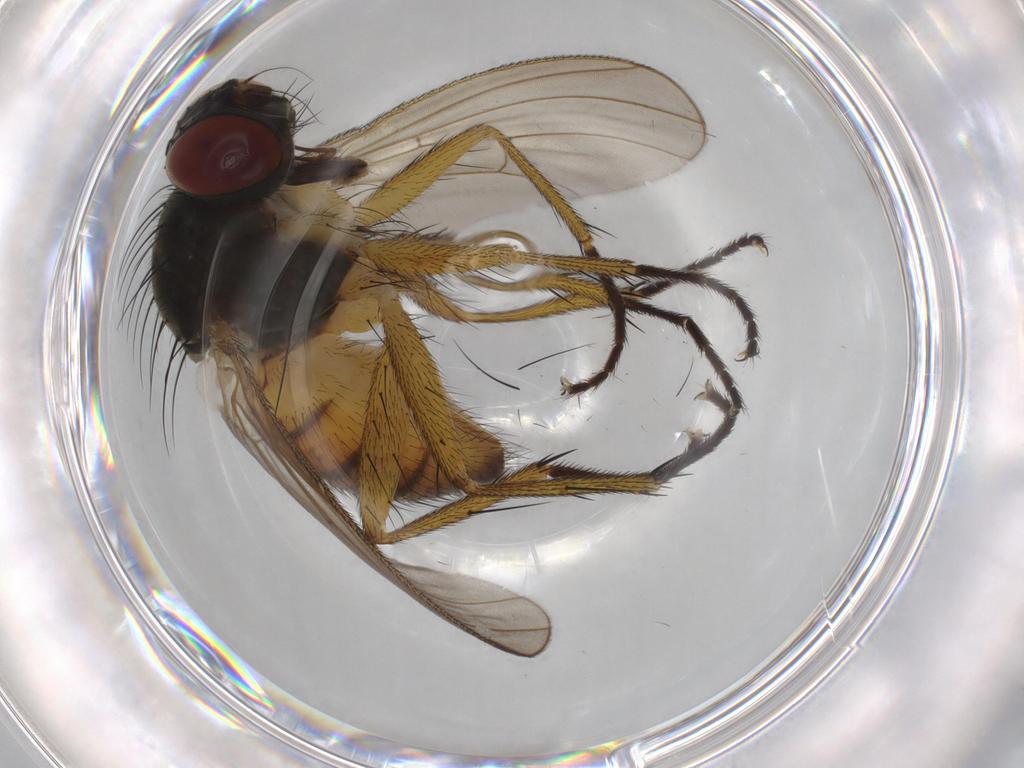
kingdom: Animalia
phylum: Arthropoda
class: Insecta
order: Diptera
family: Muscidae
